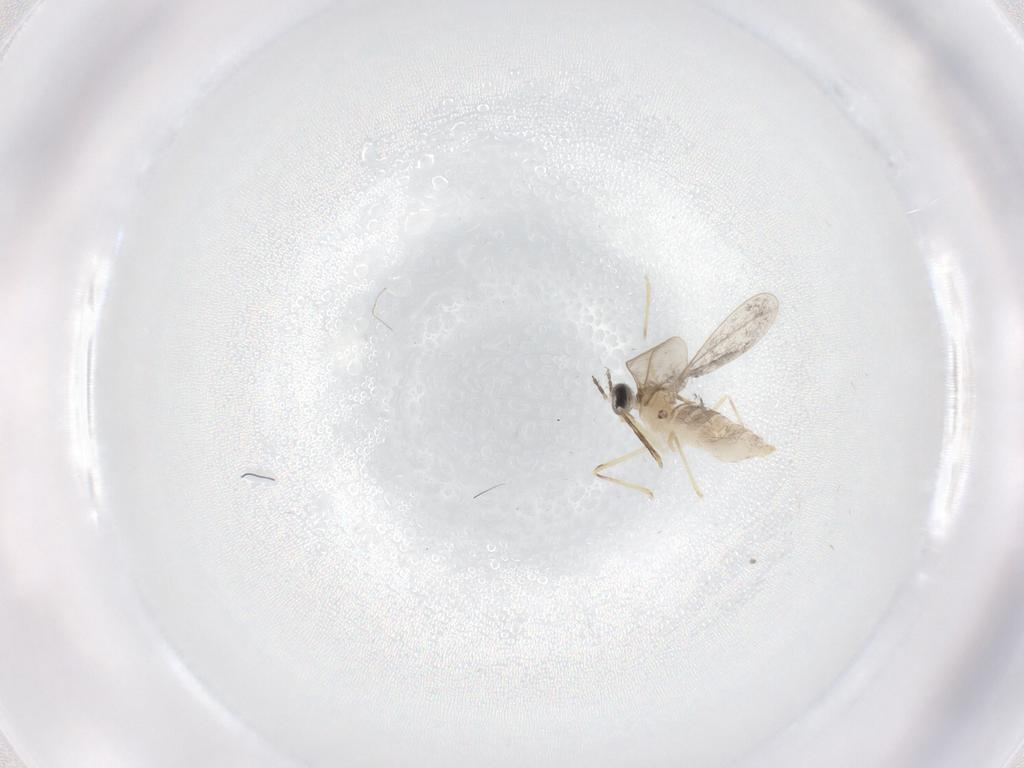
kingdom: Animalia
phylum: Arthropoda
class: Insecta
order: Diptera
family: Cecidomyiidae
